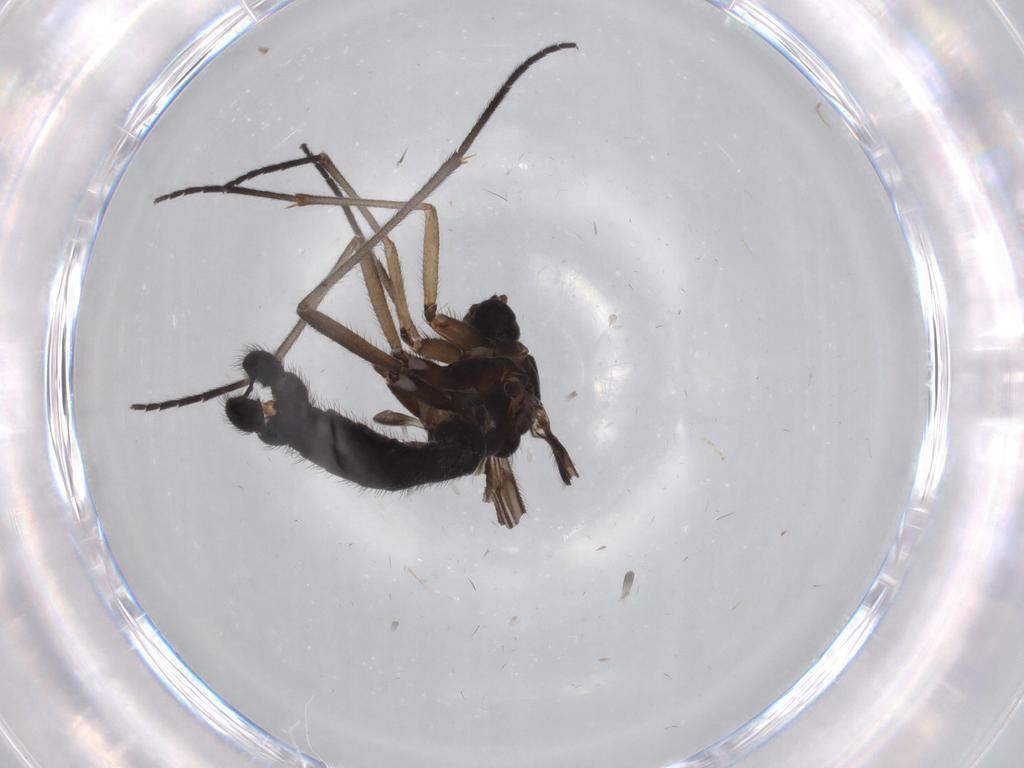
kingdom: Animalia
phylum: Arthropoda
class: Insecta
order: Diptera
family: Sciaridae
